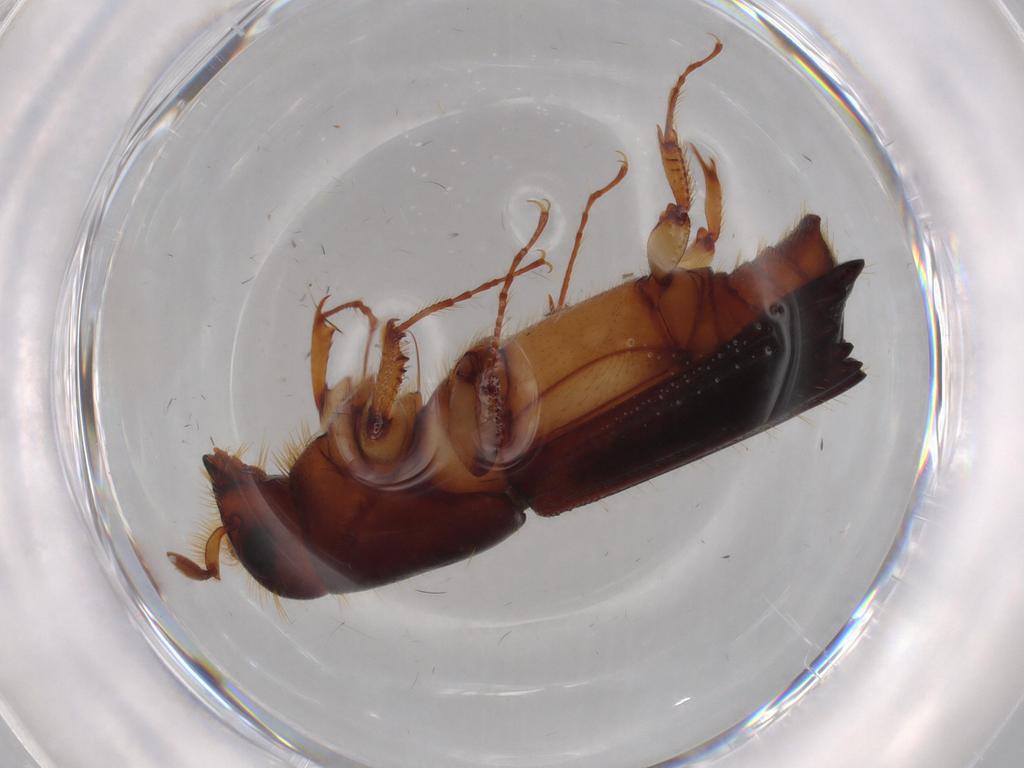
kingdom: Animalia
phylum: Arthropoda
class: Insecta
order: Coleoptera
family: Curculionidae
